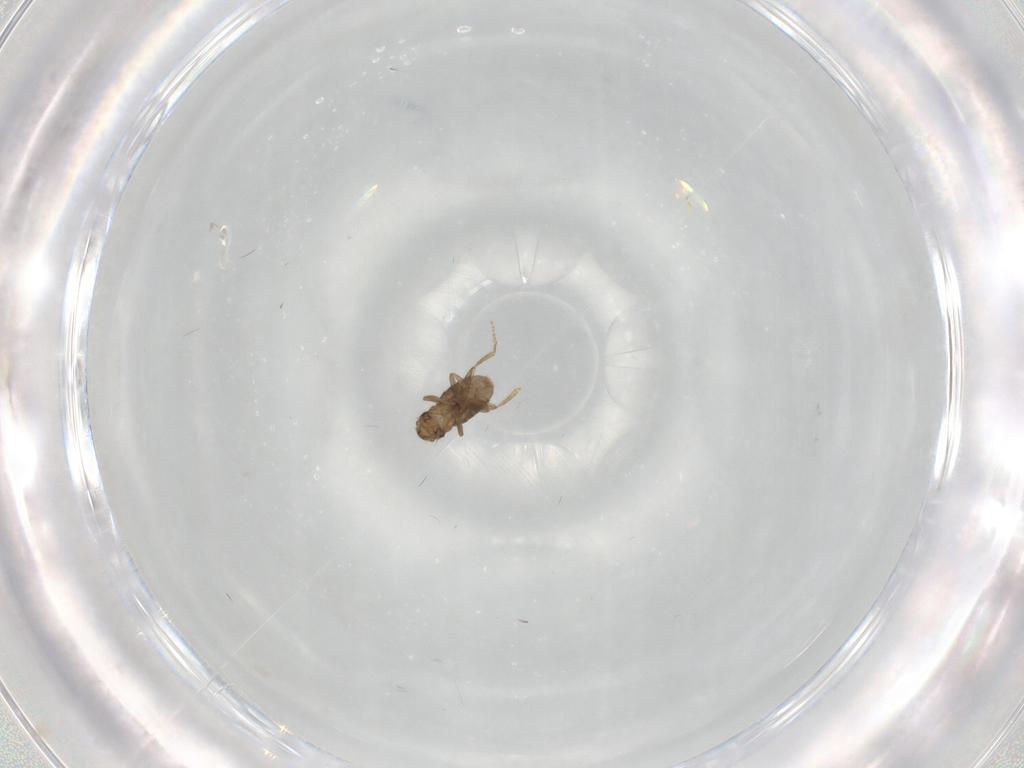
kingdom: Animalia
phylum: Arthropoda
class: Insecta
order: Diptera
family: Cecidomyiidae
